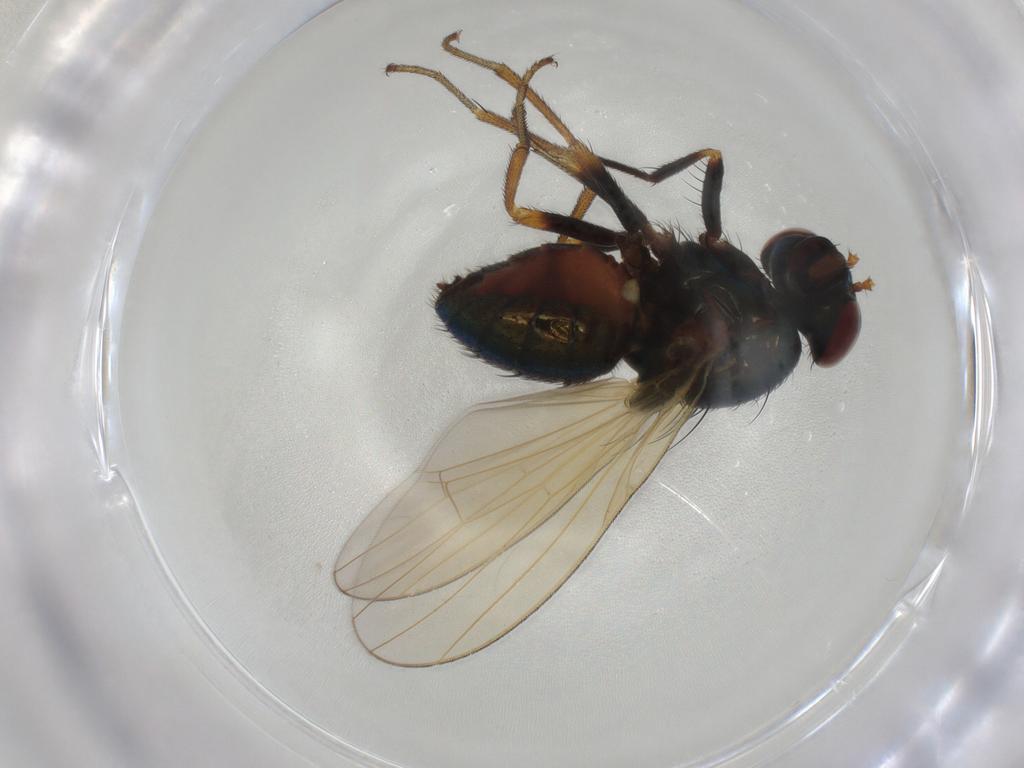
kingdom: Animalia
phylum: Arthropoda
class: Insecta
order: Diptera
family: Lauxaniidae
